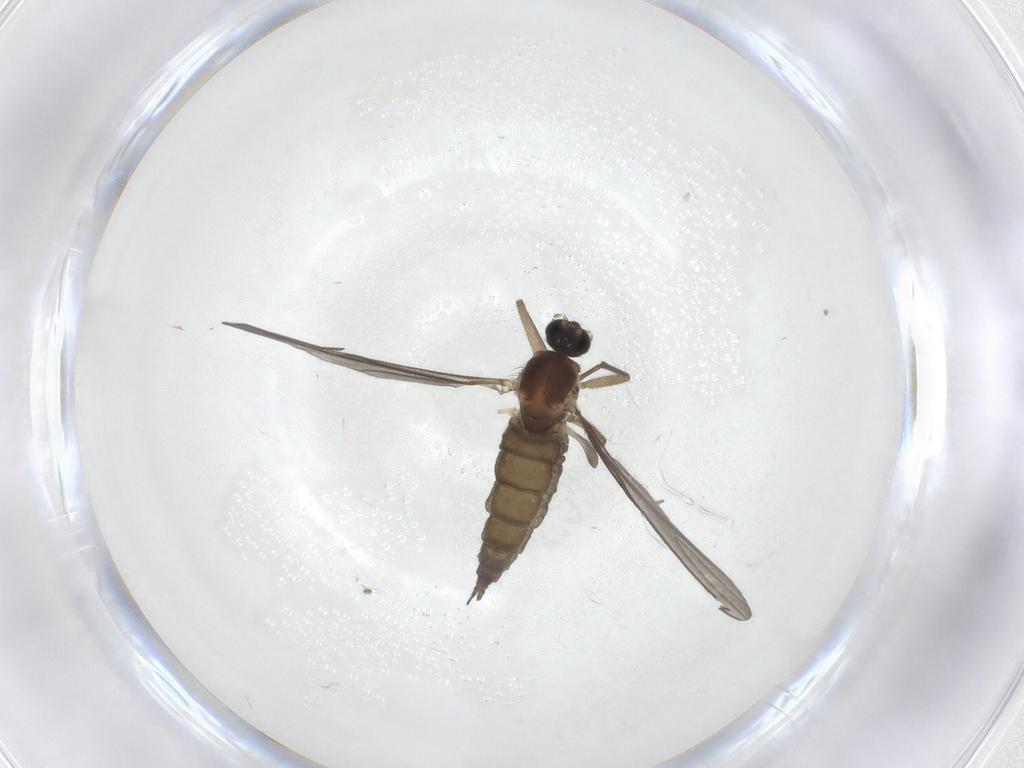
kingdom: Animalia
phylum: Arthropoda
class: Insecta
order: Diptera
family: Sciaridae
